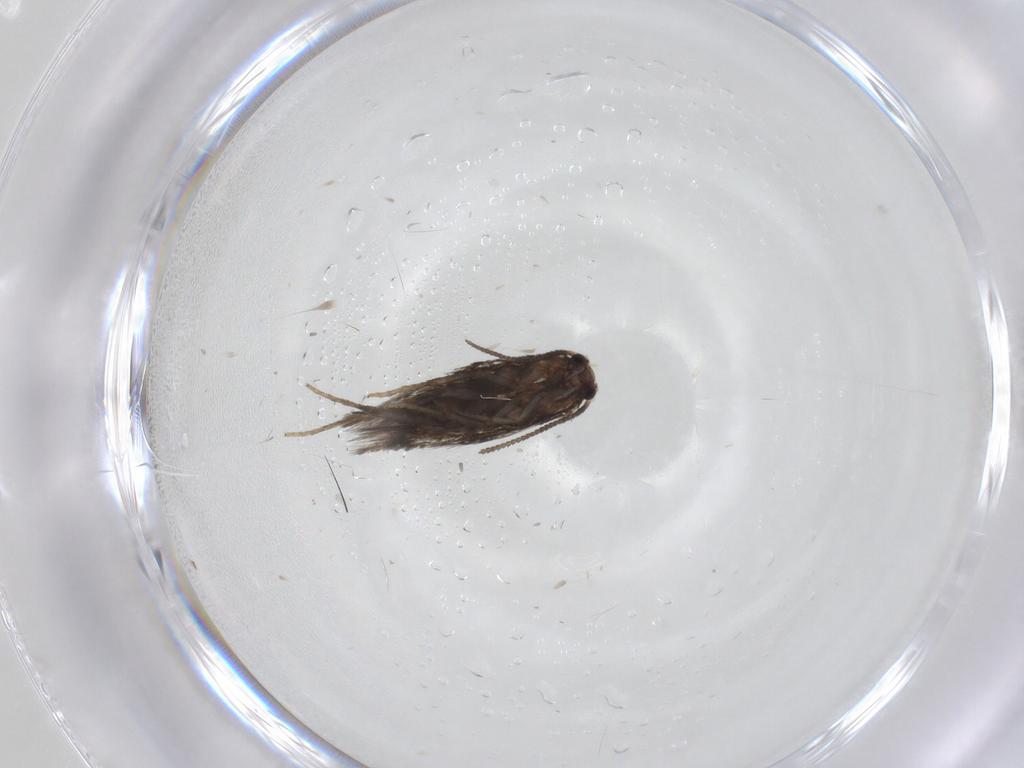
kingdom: Animalia
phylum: Arthropoda
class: Insecta
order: Lepidoptera
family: Nepticulidae
